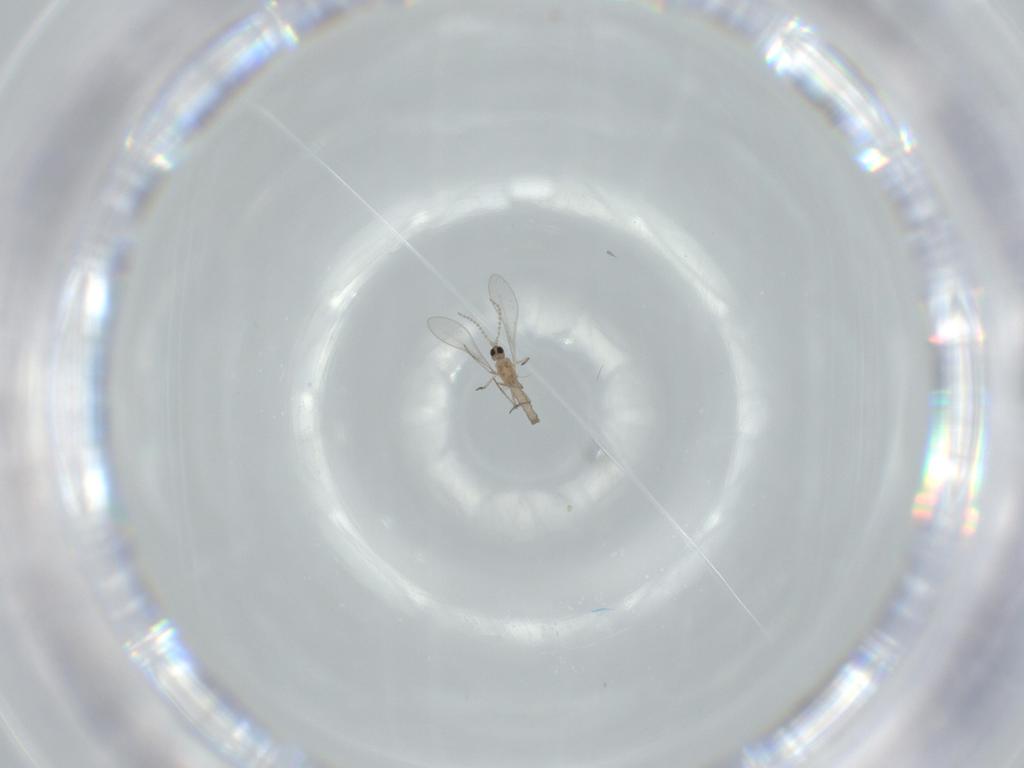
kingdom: Animalia
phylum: Arthropoda
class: Insecta
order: Diptera
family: Cecidomyiidae
